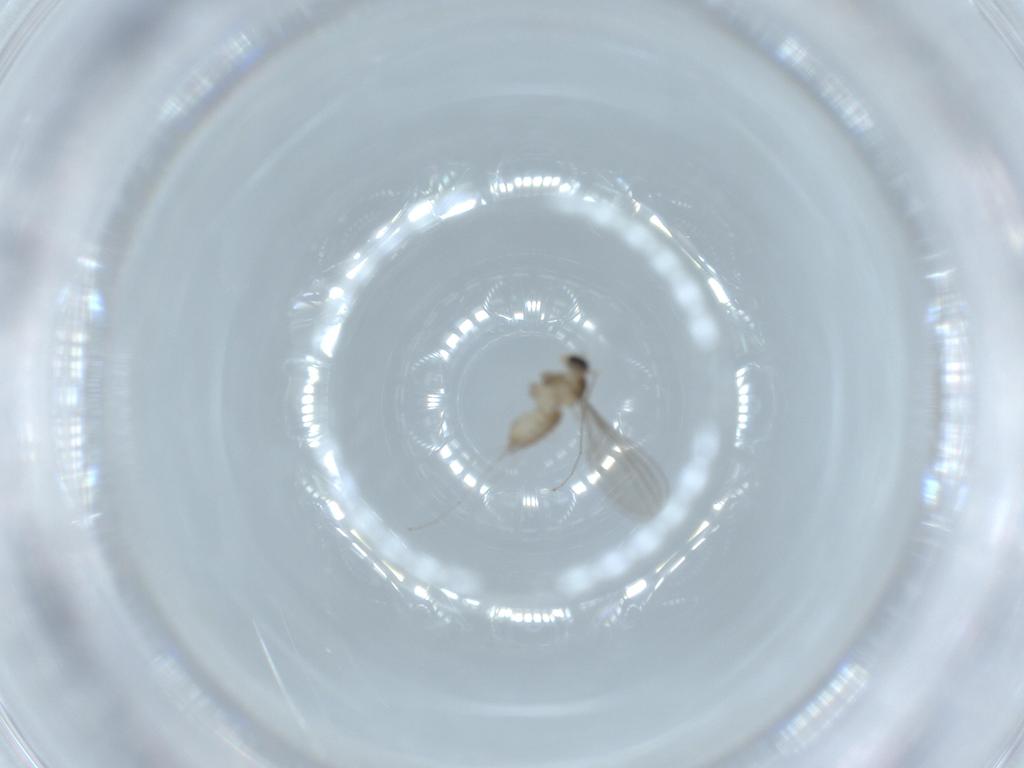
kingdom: Animalia
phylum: Arthropoda
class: Insecta
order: Diptera
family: Cecidomyiidae
